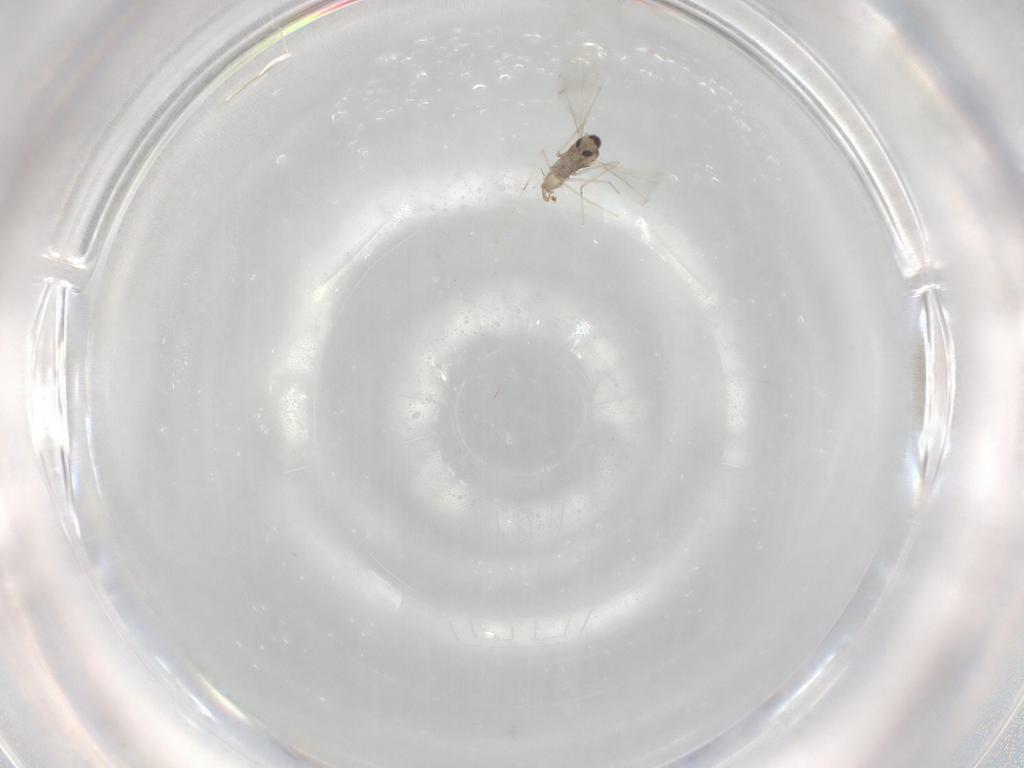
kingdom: Animalia
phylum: Arthropoda
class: Insecta
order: Diptera
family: Cecidomyiidae
